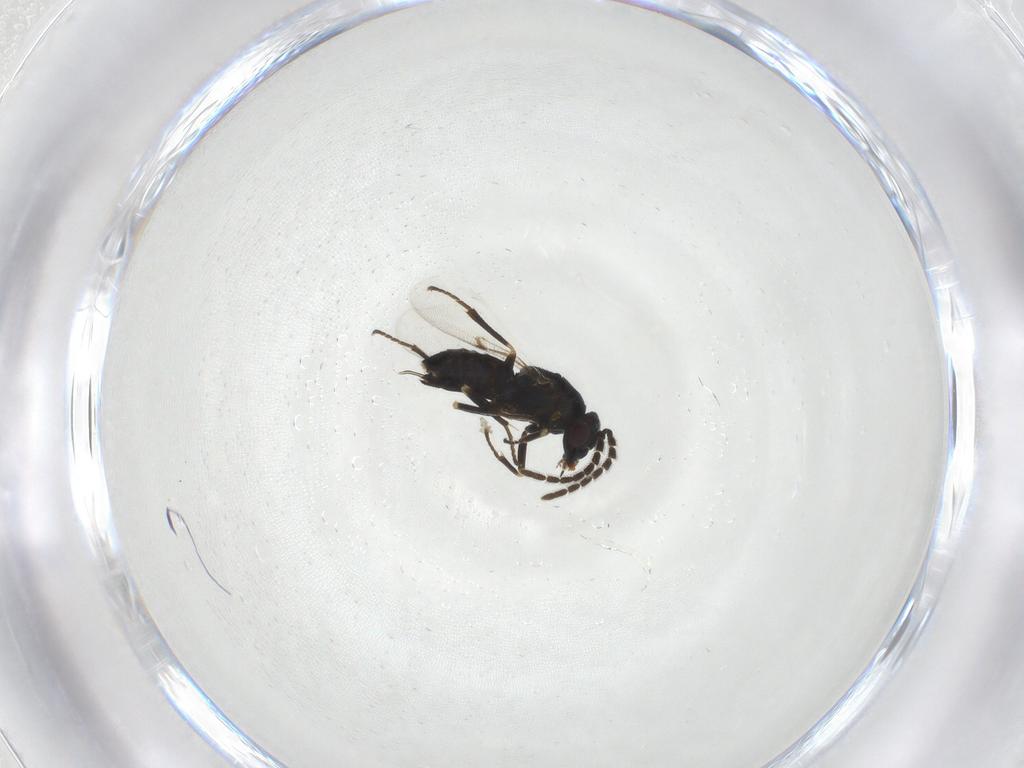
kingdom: Animalia
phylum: Arthropoda
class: Insecta
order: Hymenoptera
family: Encyrtidae
